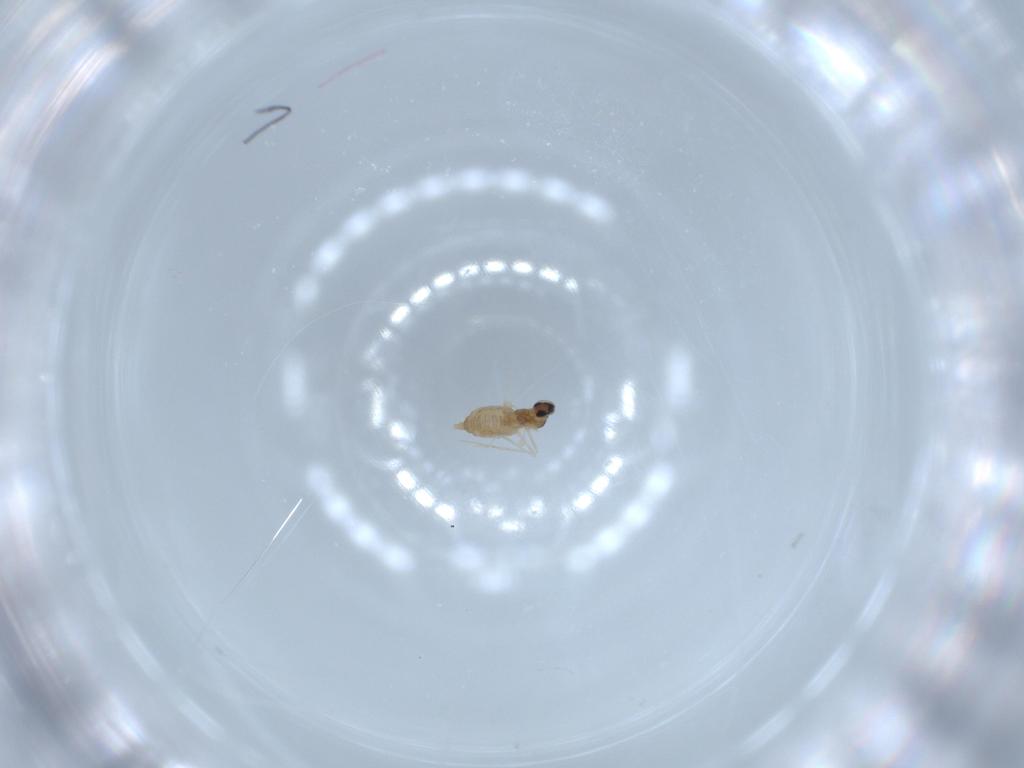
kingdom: Animalia
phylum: Arthropoda
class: Insecta
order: Diptera
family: Cecidomyiidae
